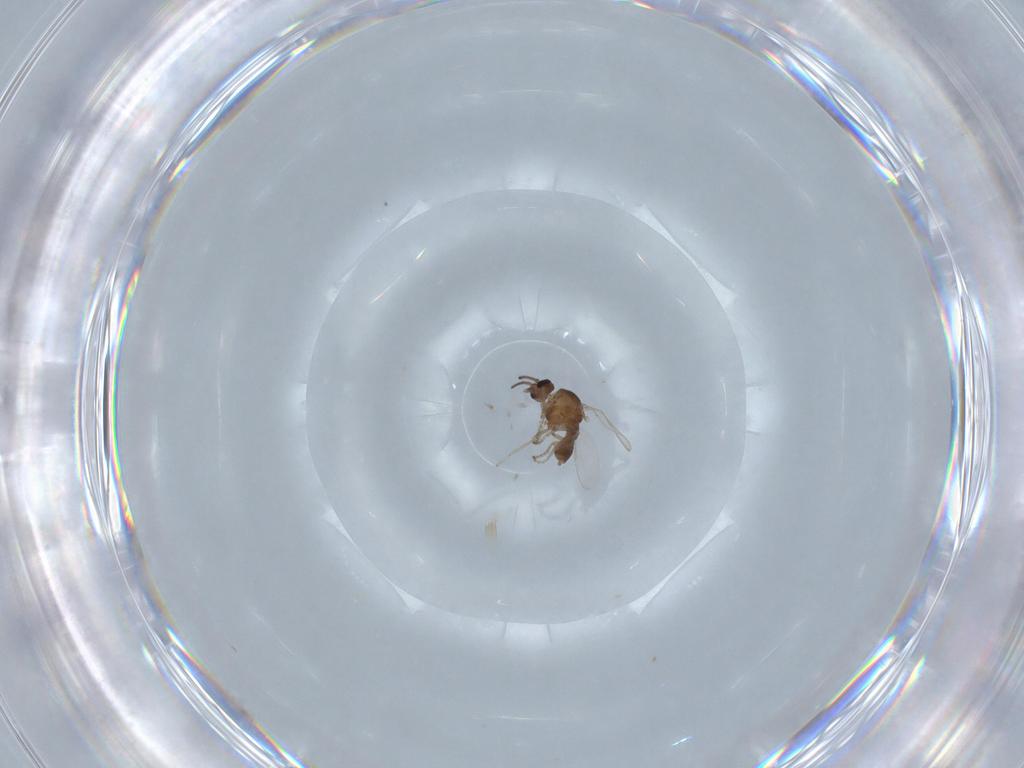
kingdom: Animalia
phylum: Arthropoda
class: Insecta
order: Diptera
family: Ceratopogonidae
